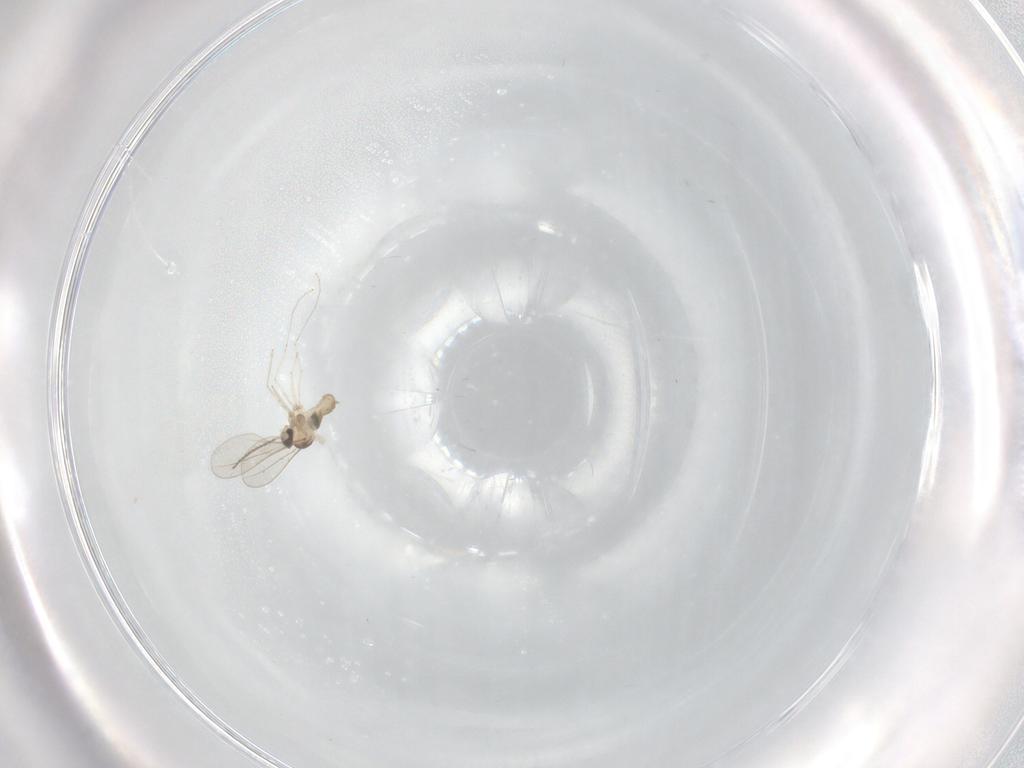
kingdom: Animalia
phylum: Arthropoda
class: Insecta
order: Diptera
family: Cecidomyiidae
